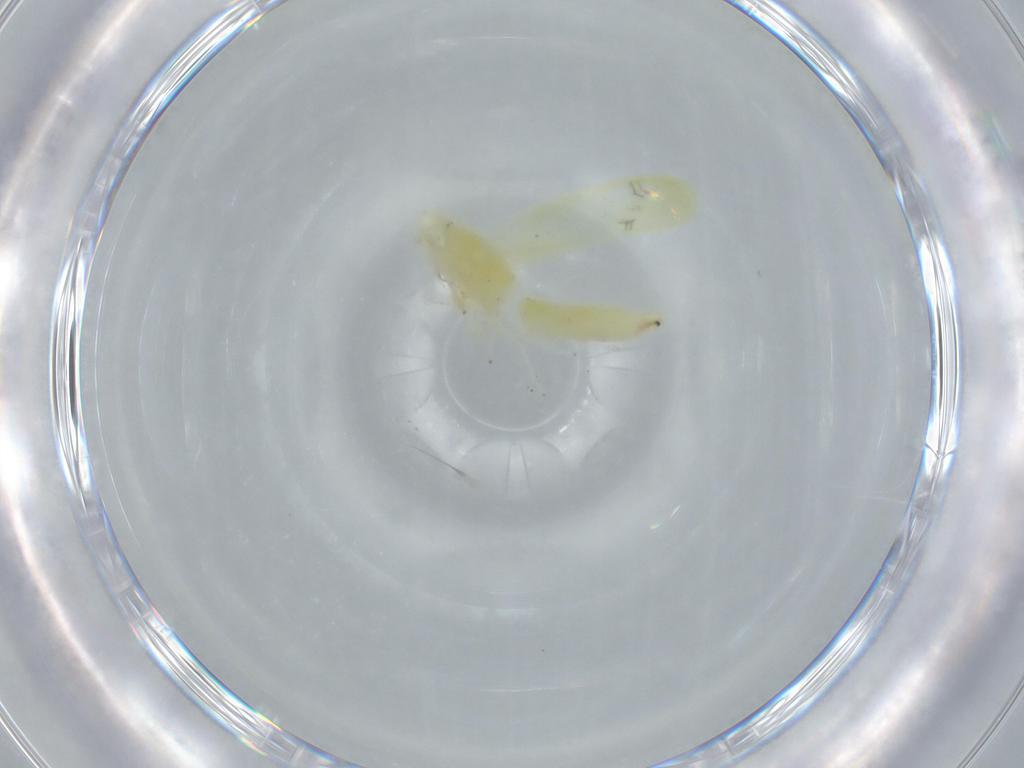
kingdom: Animalia
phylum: Arthropoda
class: Insecta
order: Hemiptera
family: Cicadellidae
